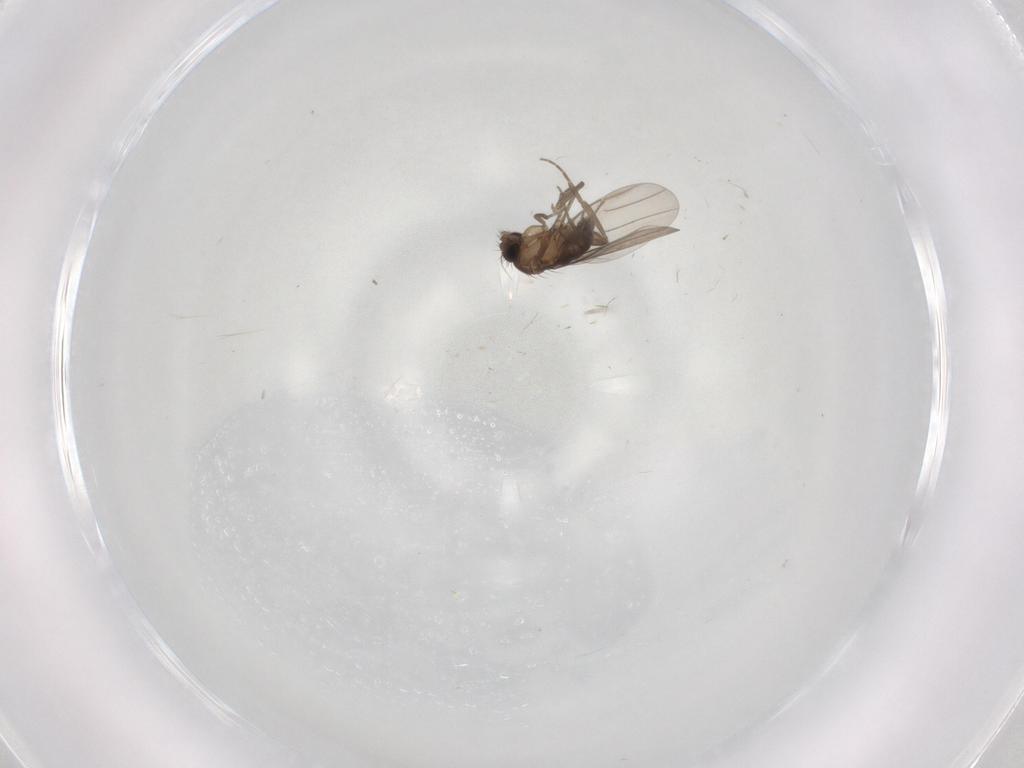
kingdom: Animalia
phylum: Arthropoda
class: Insecta
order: Diptera
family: Phoridae
